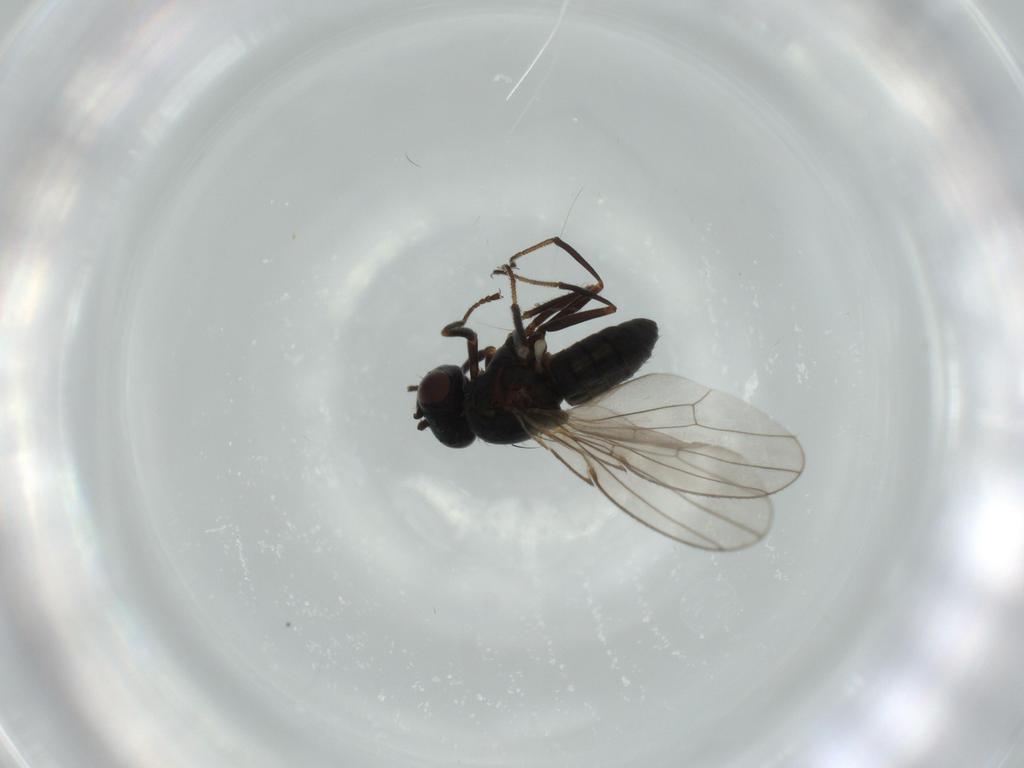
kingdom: Animalia
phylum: Arthropoda
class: Insecta
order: Diptera
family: Ephydridae
